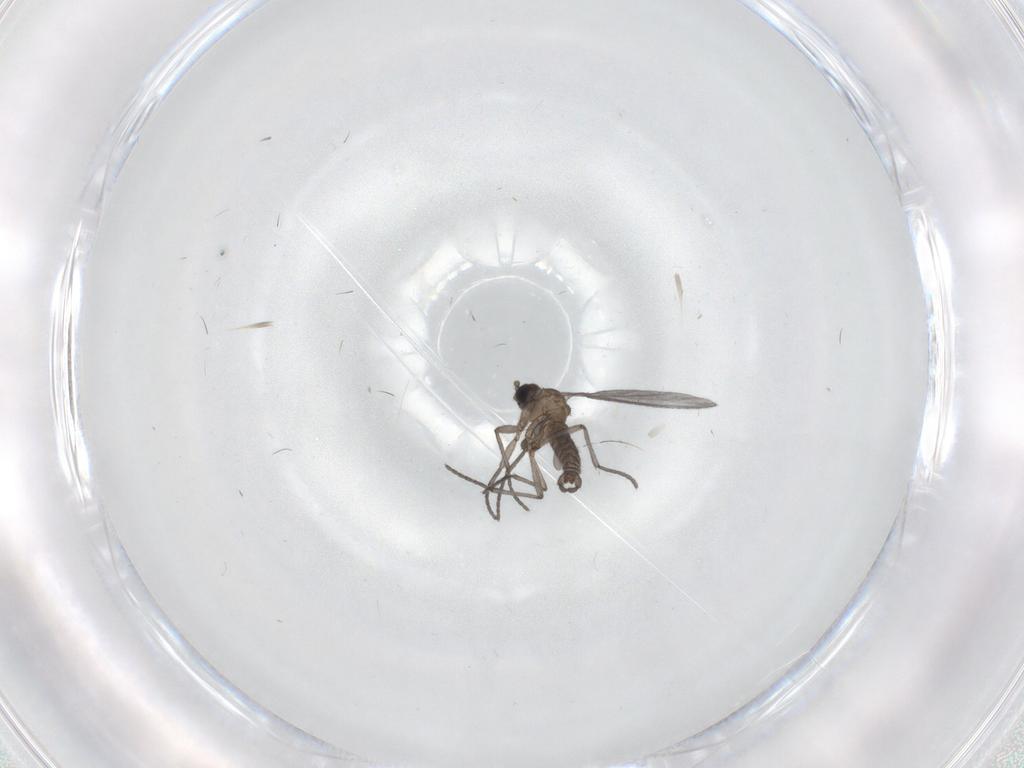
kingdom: Animalia
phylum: Arthropoda
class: Insecta
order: Diptera
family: Sciaridae
